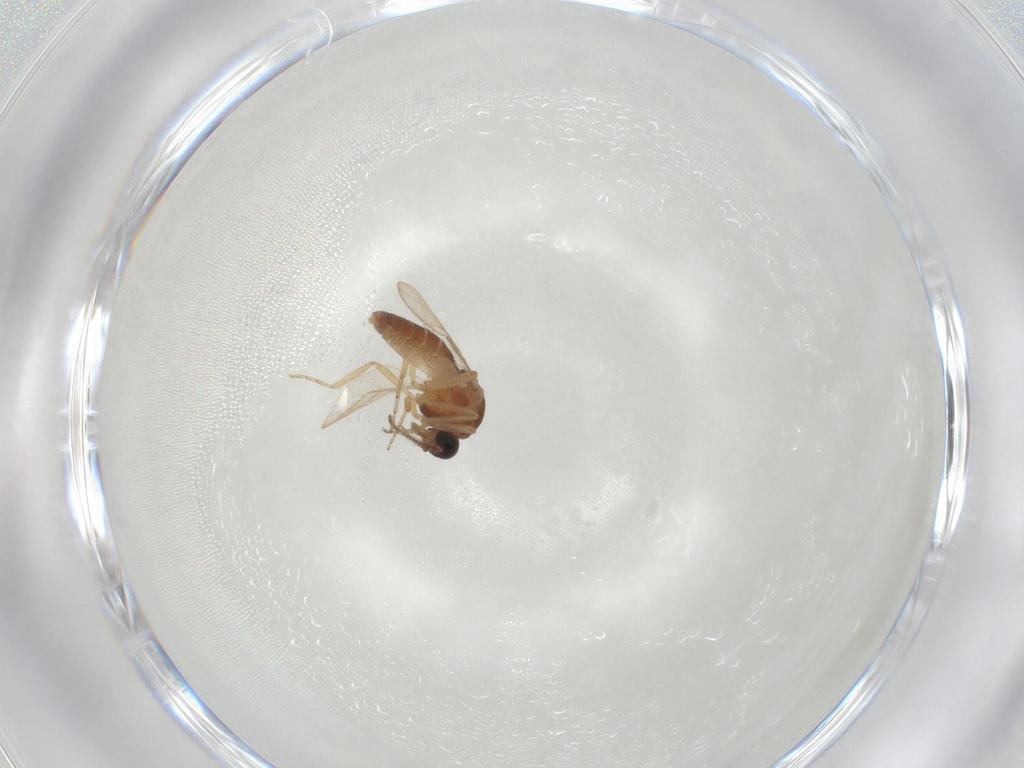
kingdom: Animalia
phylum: Arthropoda
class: Insecta
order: Diptera
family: Ceratopogonidae
